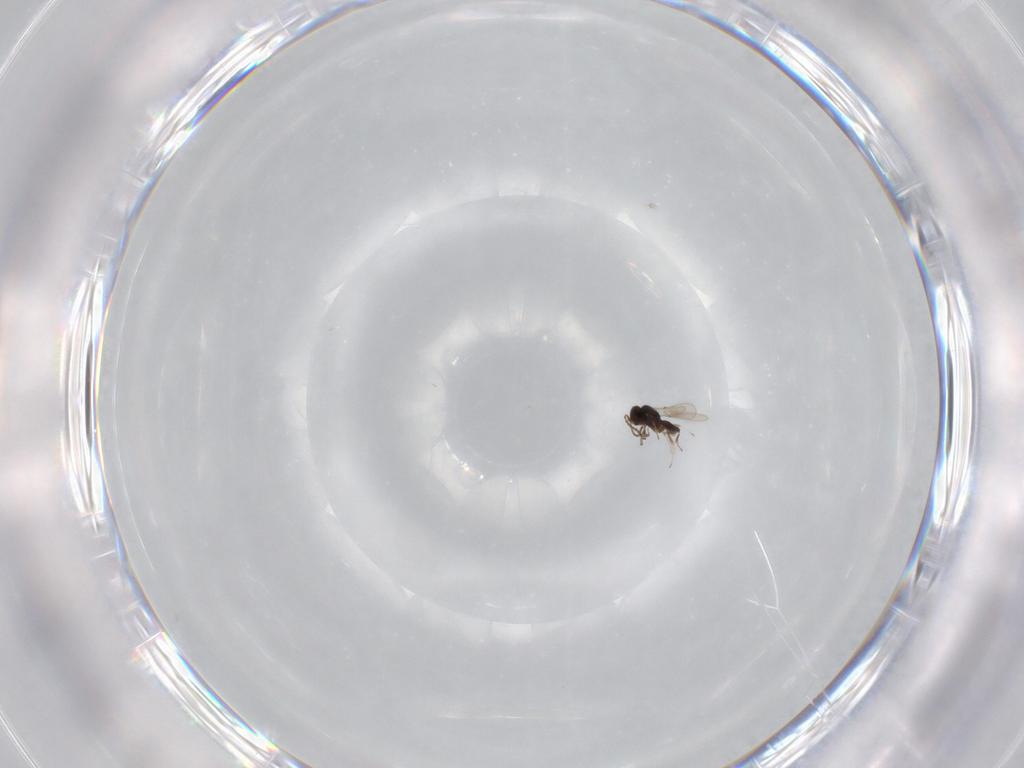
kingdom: Animalia
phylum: Arthropoda
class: Insecta
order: Hymenoptera
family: Scelionidae
